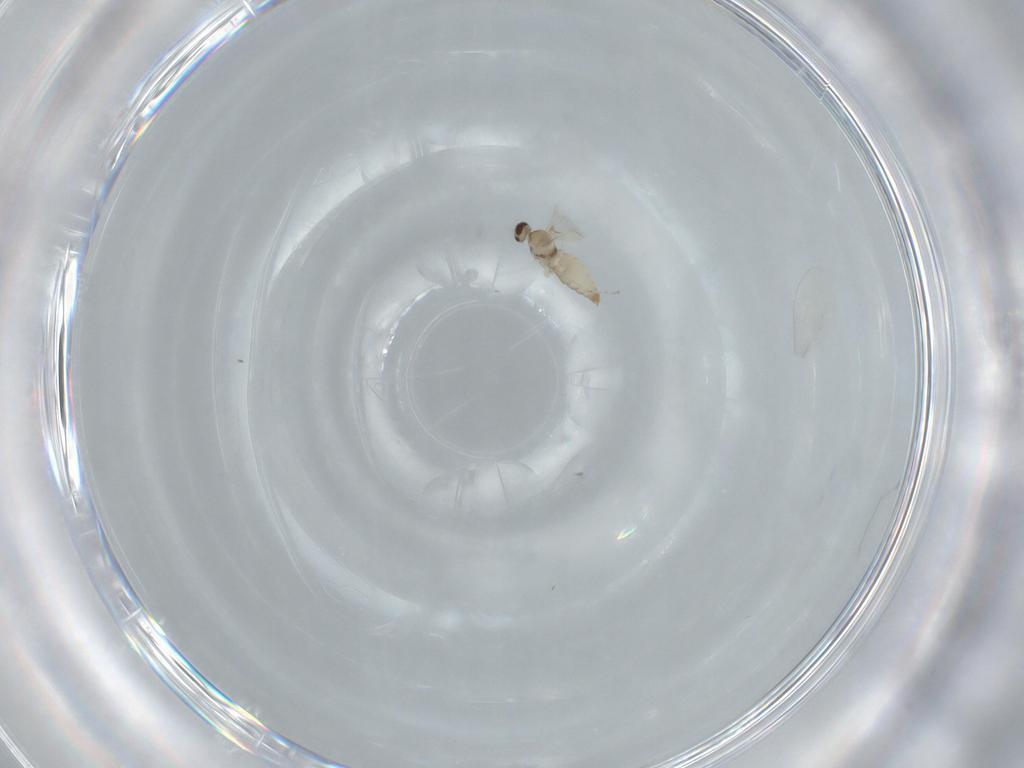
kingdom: Animalia
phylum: Arthropoda
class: Insecta
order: Diptera
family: Cecidomyiidae
